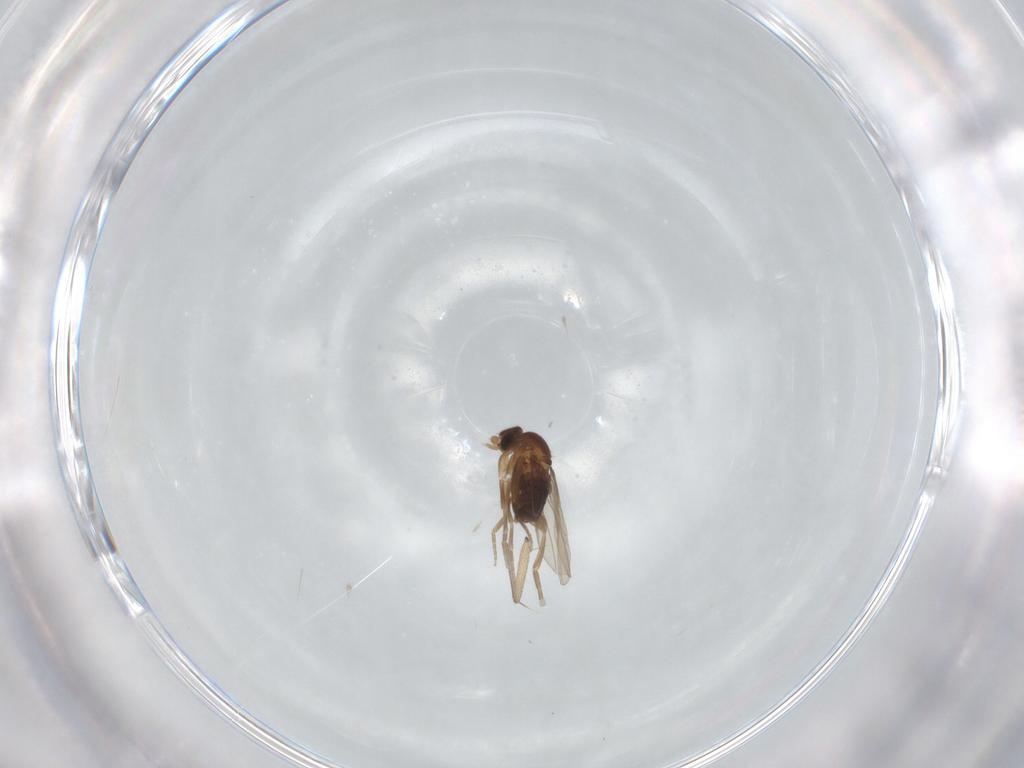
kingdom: Animalia
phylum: Arthropoda
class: Insecta
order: Diptera
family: Phoridae
